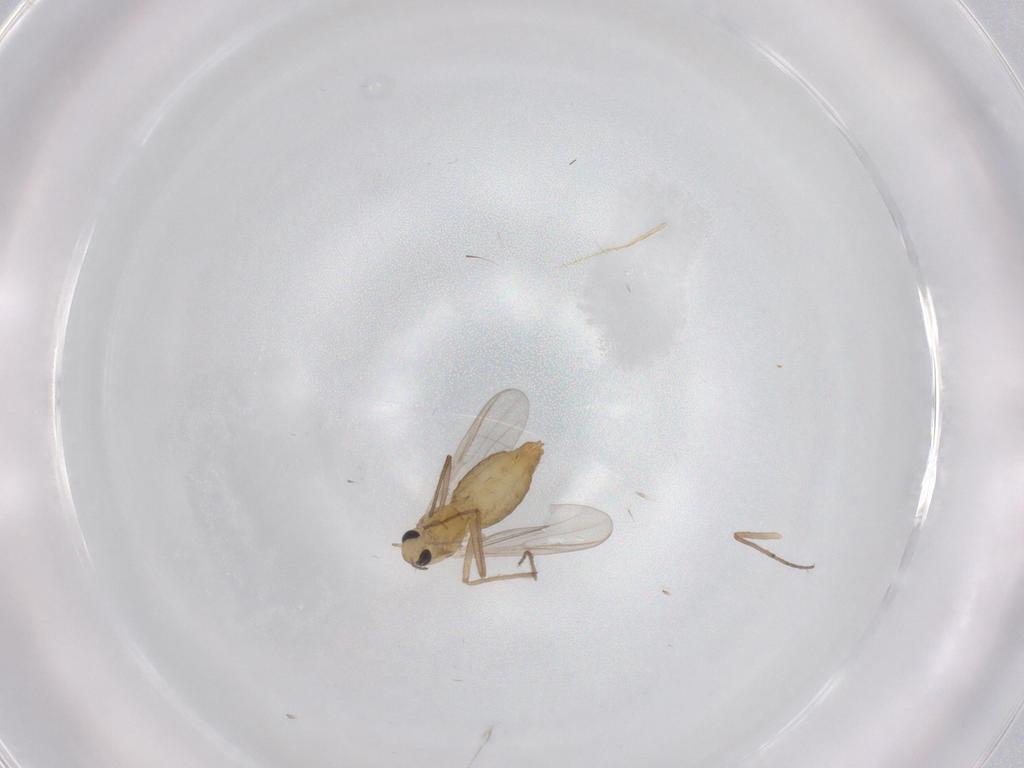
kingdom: Animalia
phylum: Arthropoda
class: Insecta
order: Diptera
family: Chironomidae
